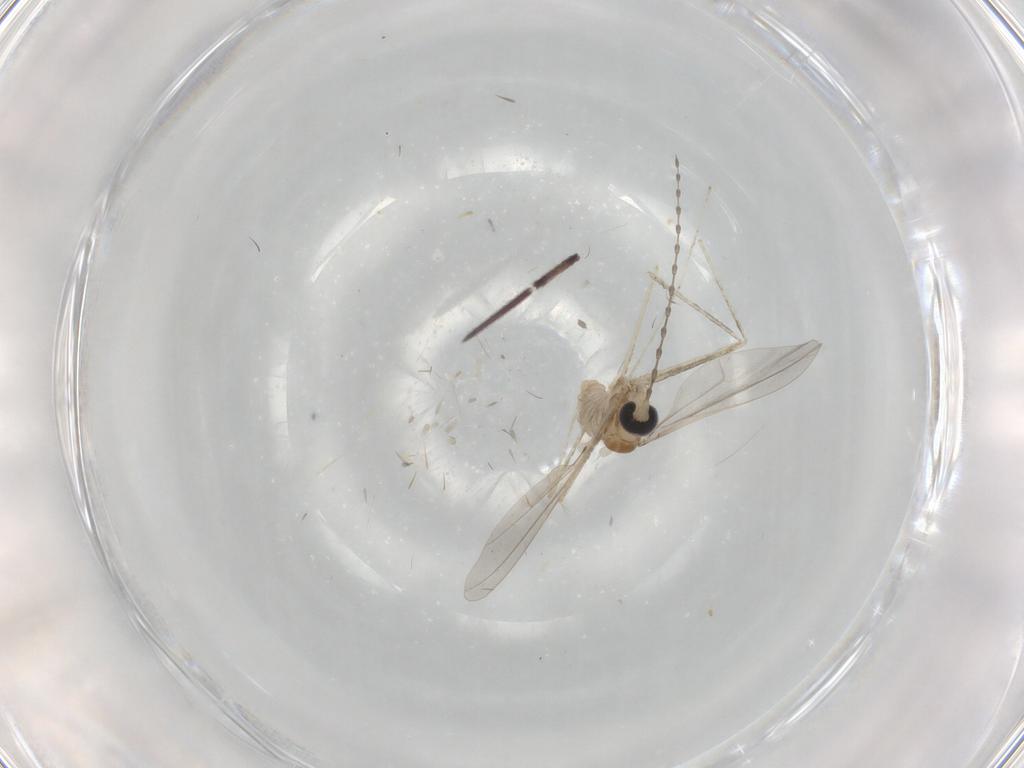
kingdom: Animalia
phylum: Arthropoda
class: Insecta
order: Diptera
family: Cecidomyiidae
